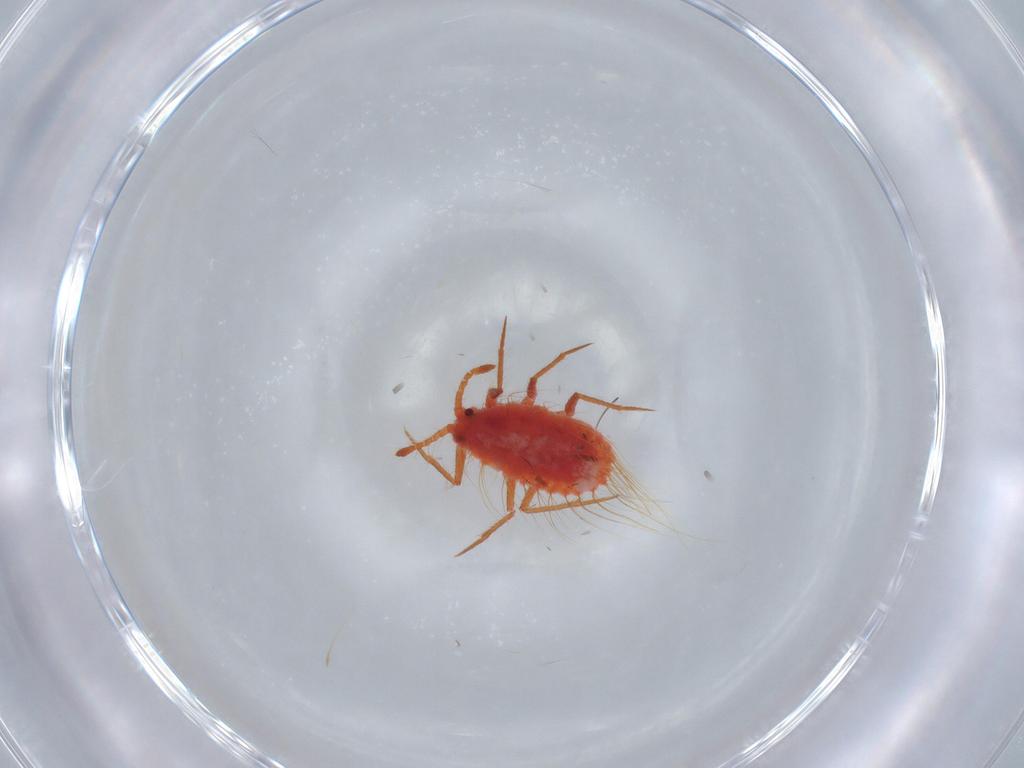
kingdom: Animalia
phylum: Arthropoda
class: Insecta
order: Hemiptera
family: Monophlebidae
